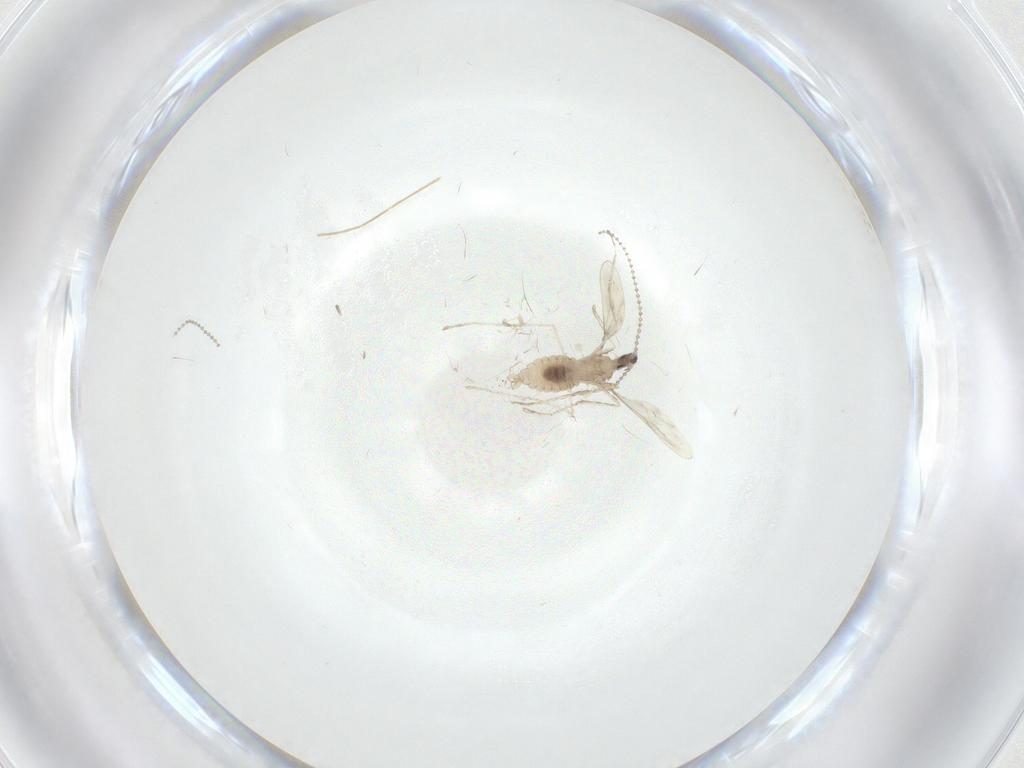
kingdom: Animalia
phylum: Arthropoda
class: Insecta
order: Diptera
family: Cecidomyiidae
